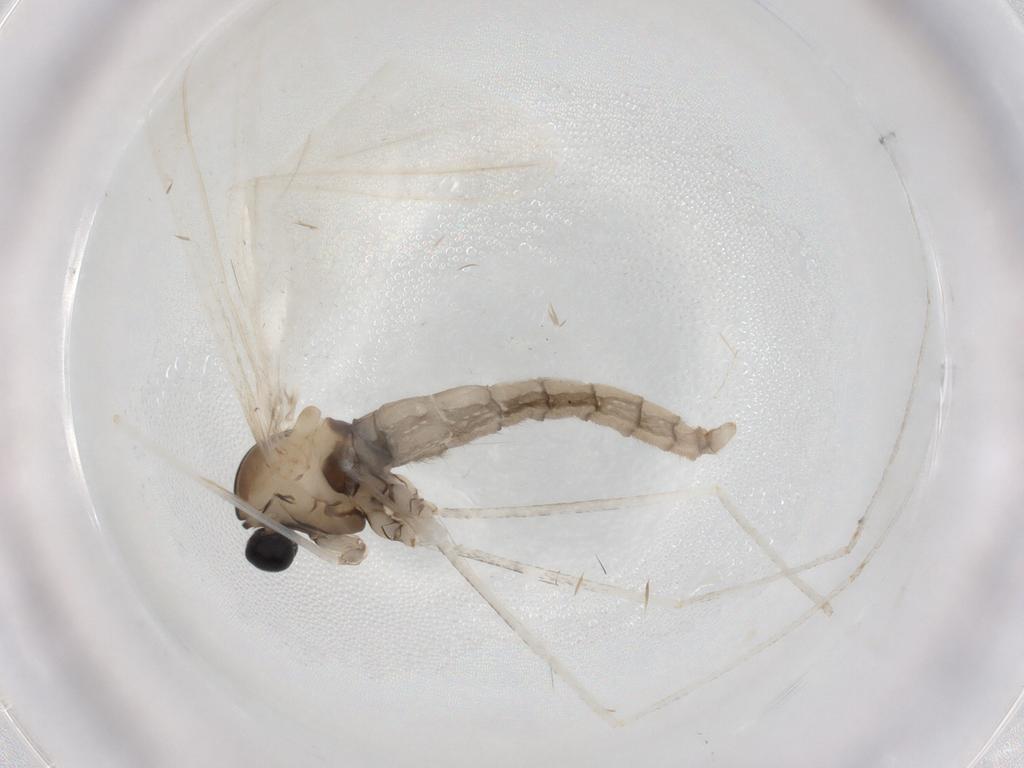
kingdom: Animalia
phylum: Arthropoda
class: Insecta
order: Diptera
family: Cecidomyiidae
